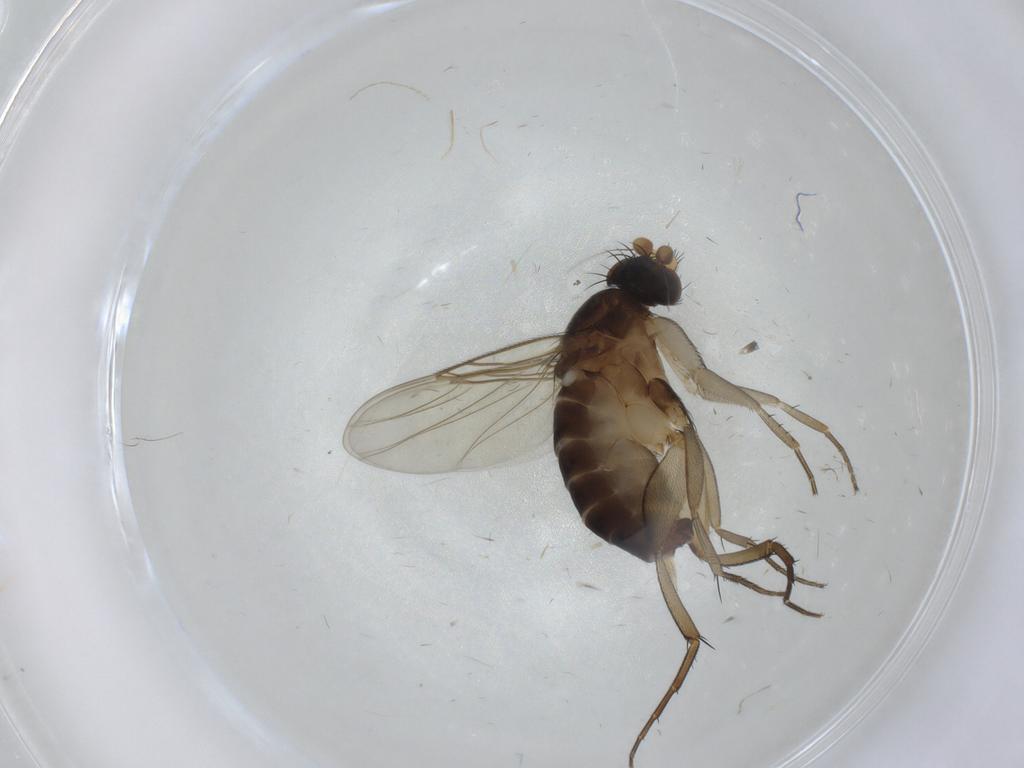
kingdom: Animalia
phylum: Arthropoda
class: Insecta
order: Diptera
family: Phoridae
